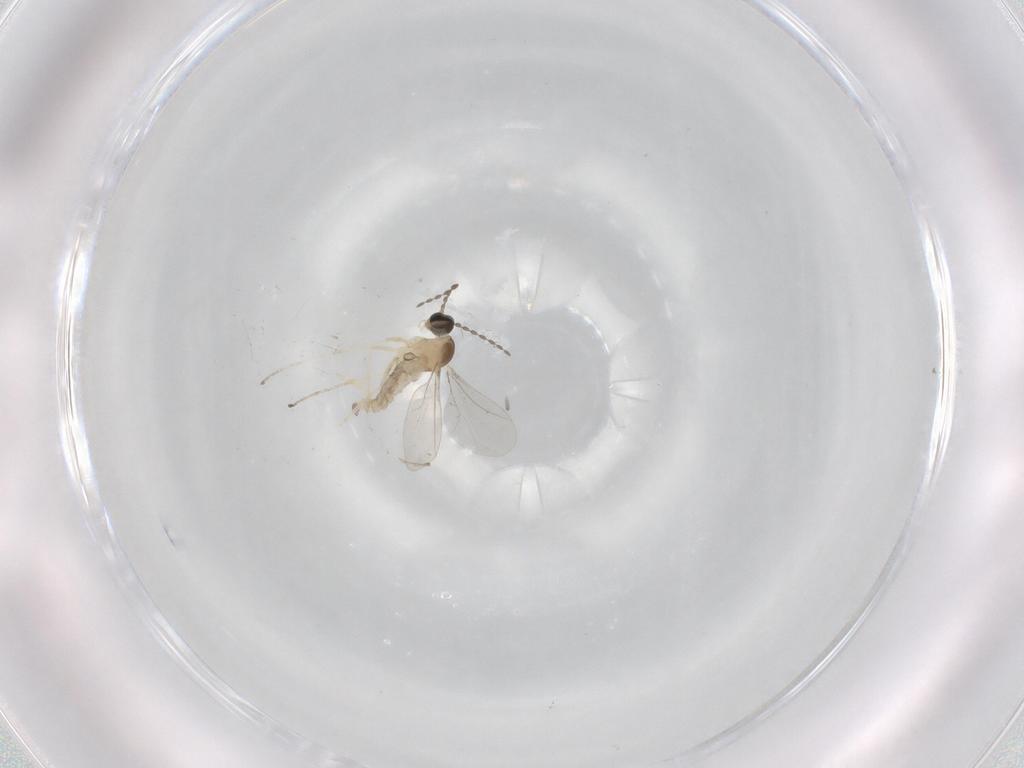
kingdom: Animalia
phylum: Arthropoda
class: Insecta
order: Diptera
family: Cecidomyiidae
